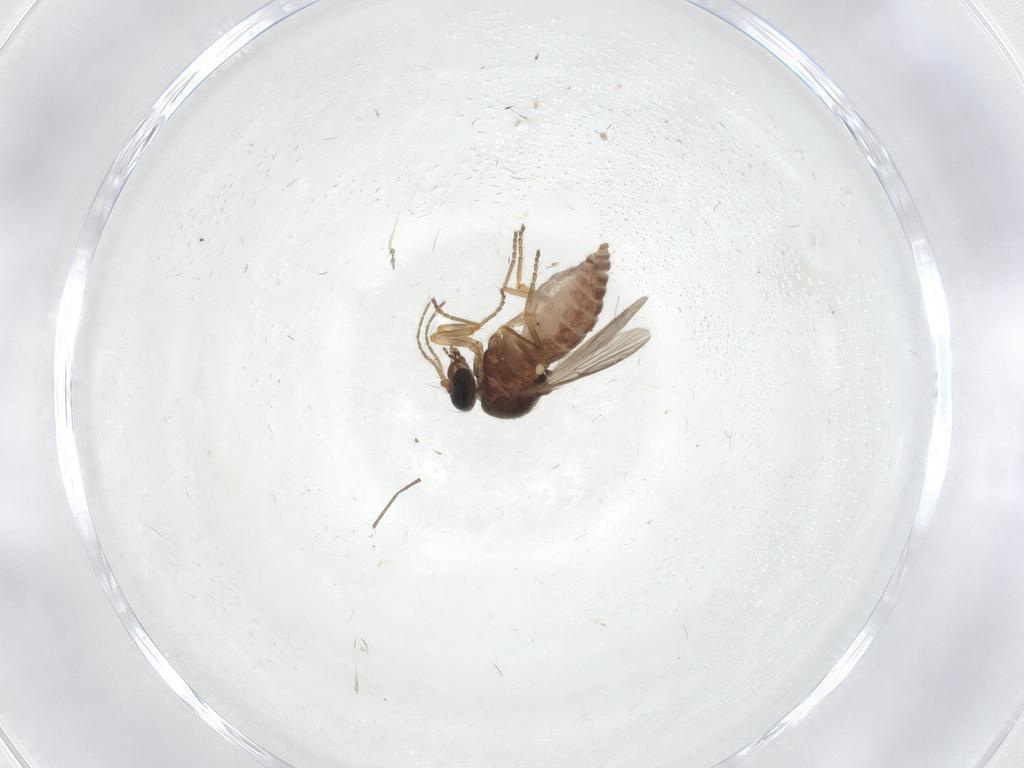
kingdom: Animalia
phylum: Arthropoda
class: Insecta
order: Diptera
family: Ceratopogonidae
